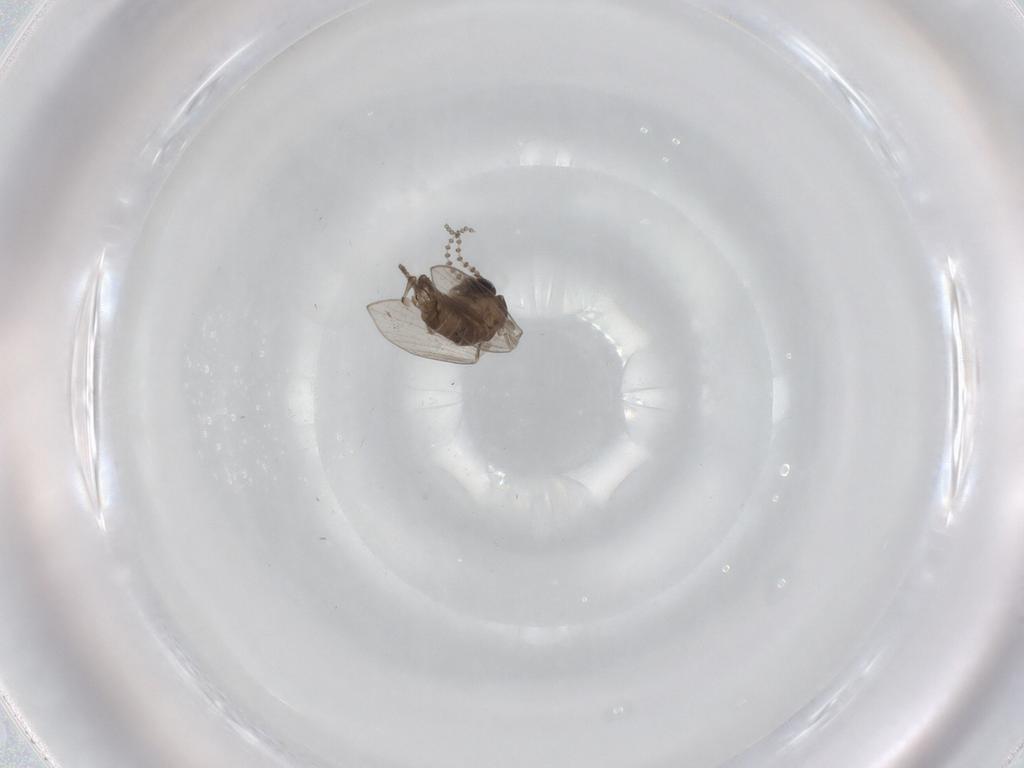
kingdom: Animalia
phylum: Arthropoda
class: Insecta
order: Diptera
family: Psychodidae
